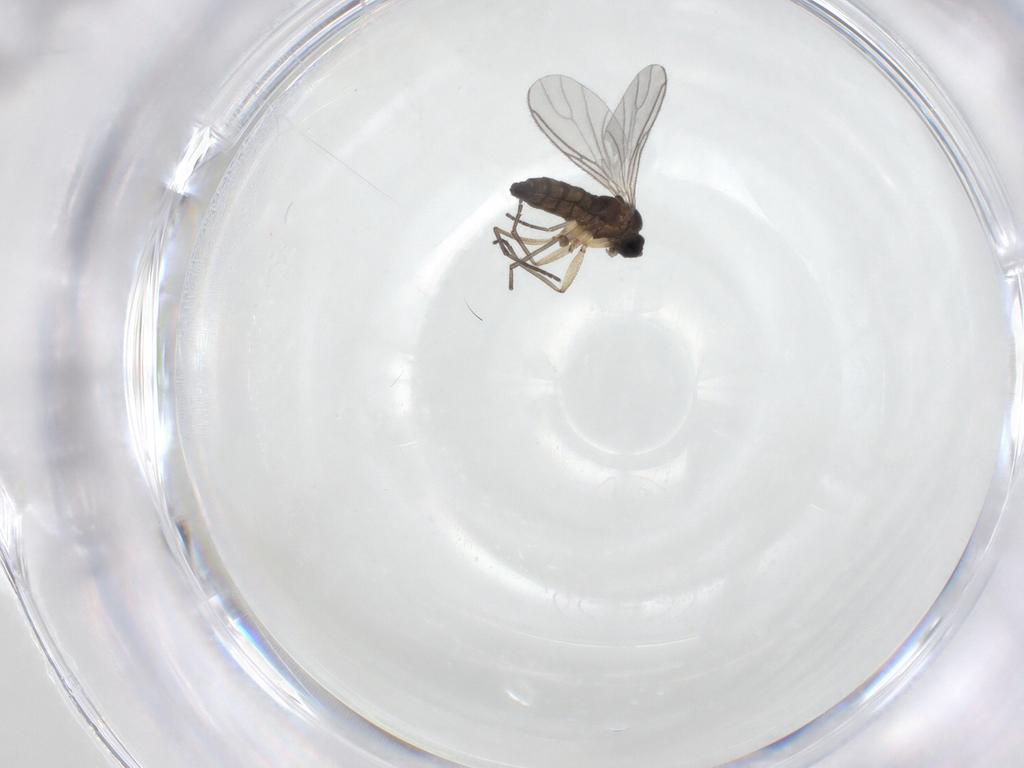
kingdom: Animalia
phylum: Arthropoda
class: Insecta
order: Diptera
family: Sciaridae
